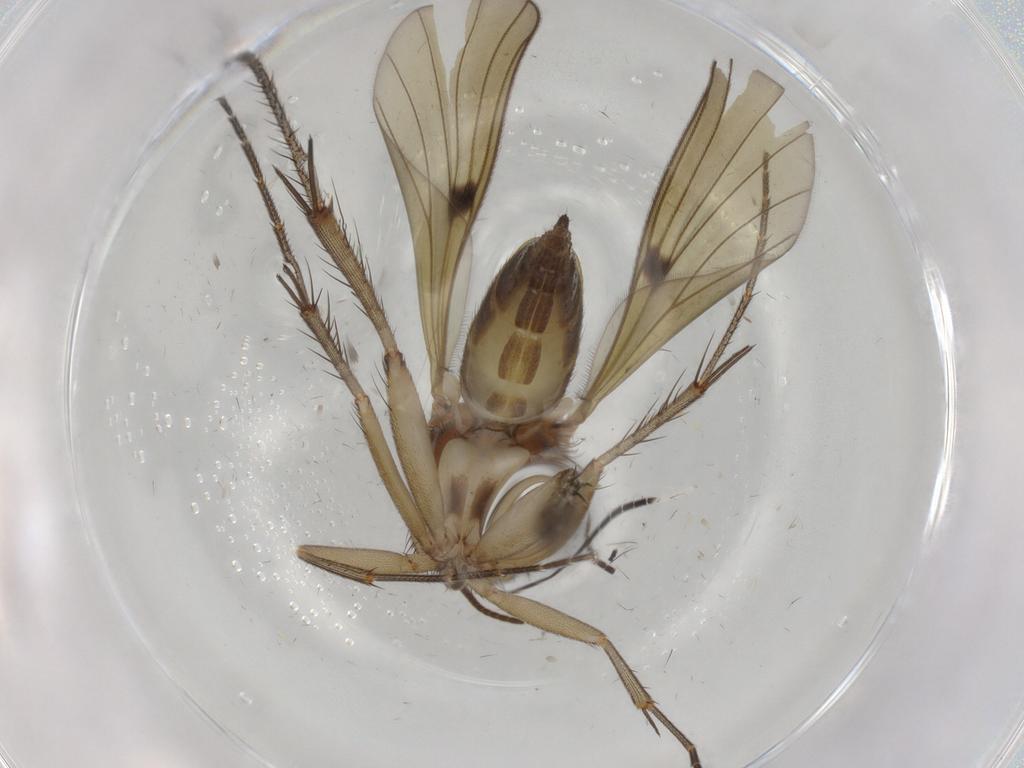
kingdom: Animalia
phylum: Arthropoda
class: Insecta
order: Diptera
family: Mycetophilidae
